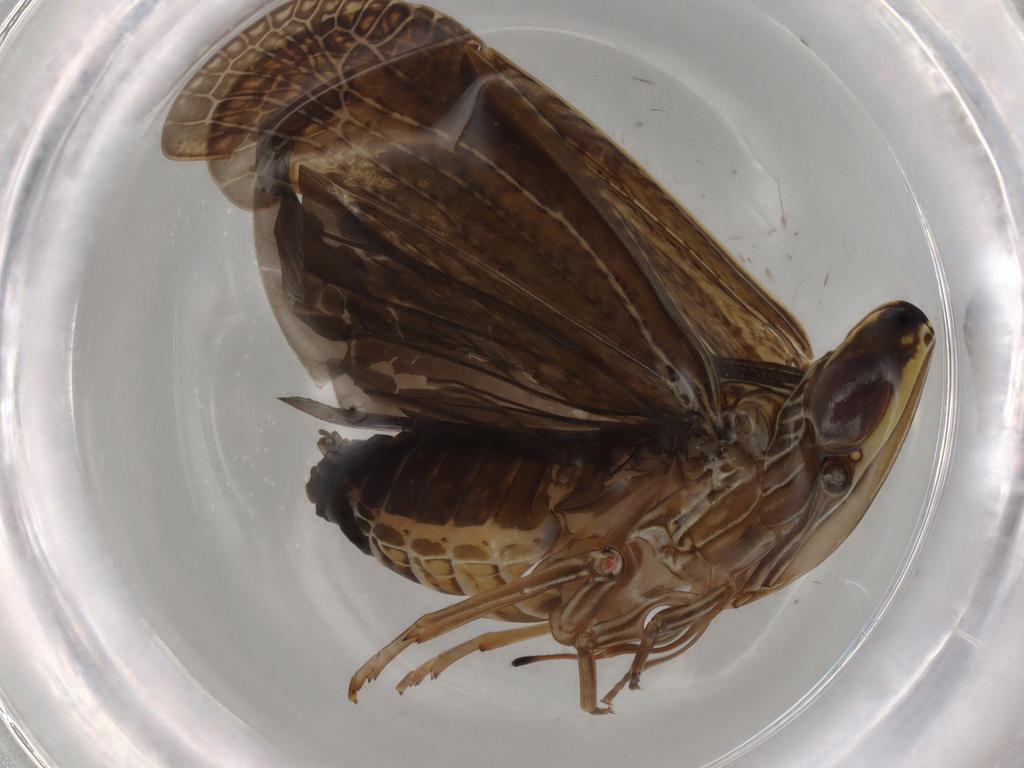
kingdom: Animalia
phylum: Arthropoda
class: Insecta
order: Hemiptera
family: Achilidae
